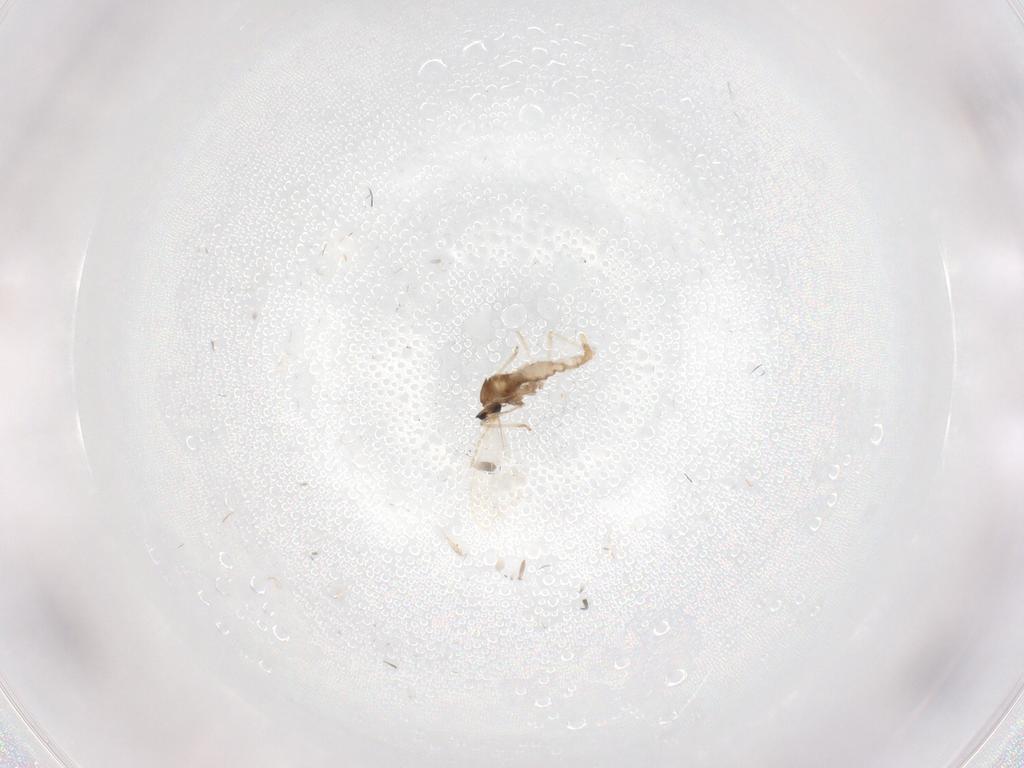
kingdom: Animalia
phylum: Arthropoda
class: Insecta
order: Diptera
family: Cecidomyiidae
